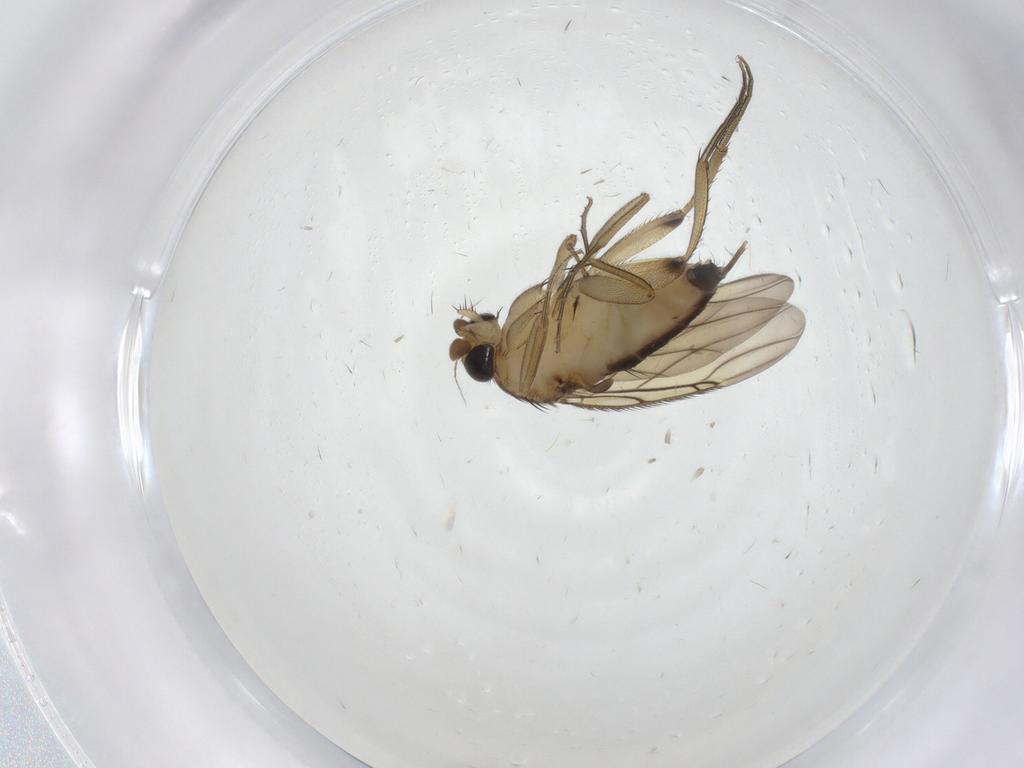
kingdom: Animalia
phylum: Arthropoda
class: Insecta
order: Diptera
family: Phoridae
